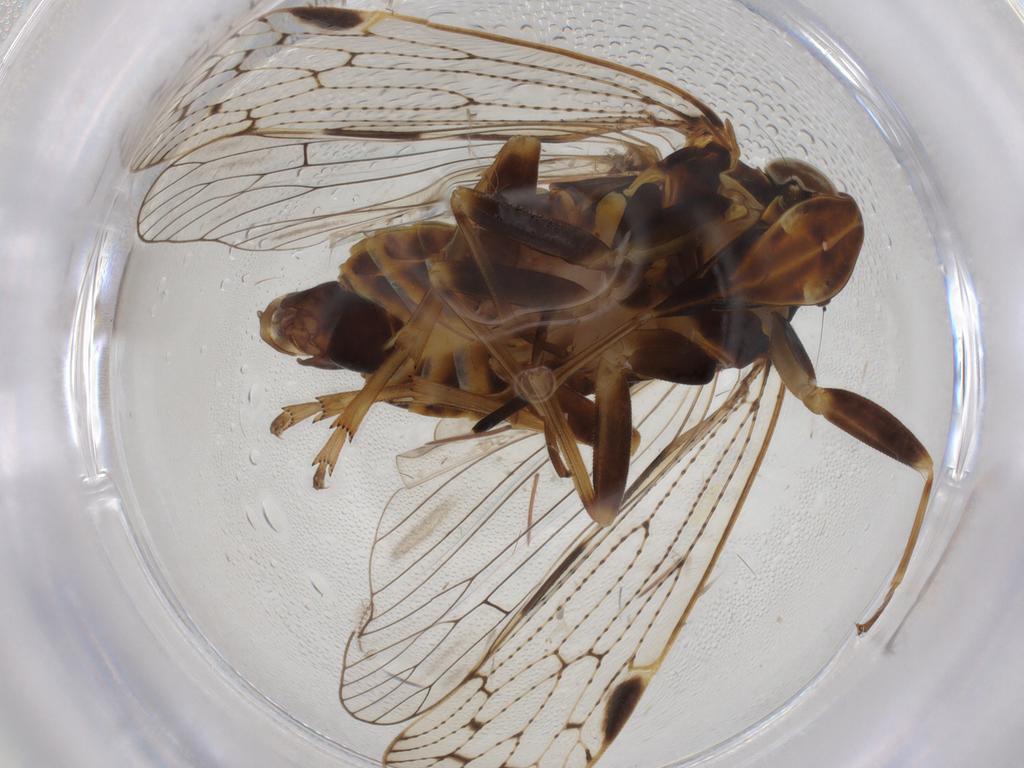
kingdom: Animalia
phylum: Arthropoda
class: Insecta
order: Hemiptera
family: Cixiidae
